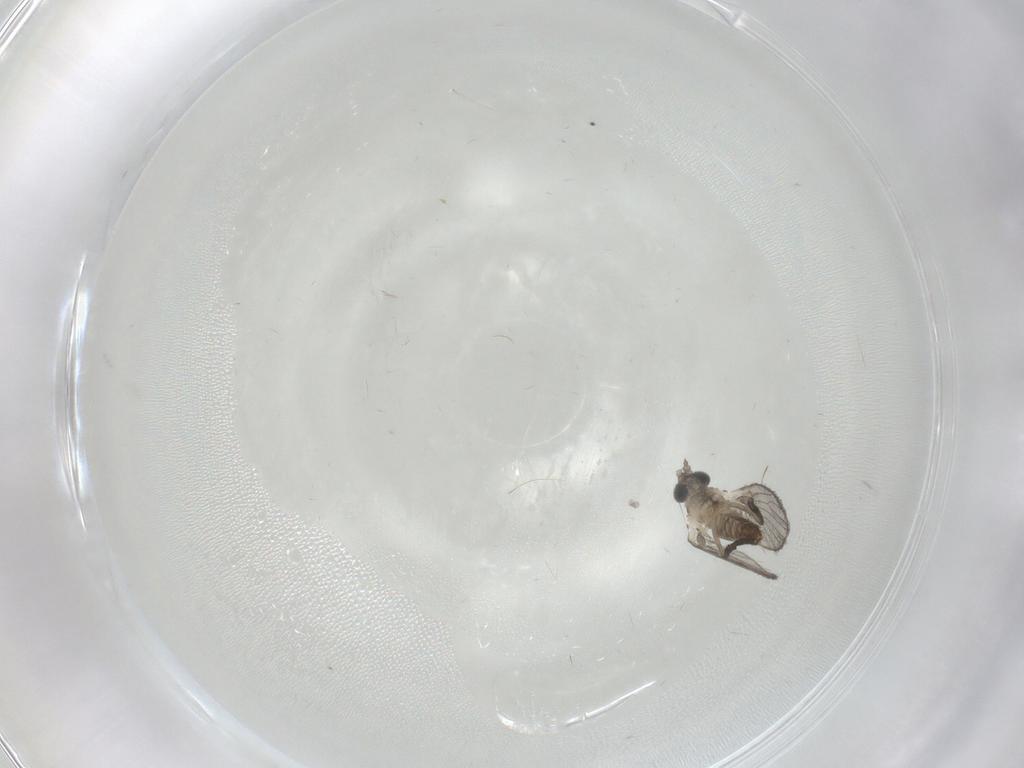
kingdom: Animalia
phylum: Arthropoda
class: Insecta
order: Diptera
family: Psychodidae
